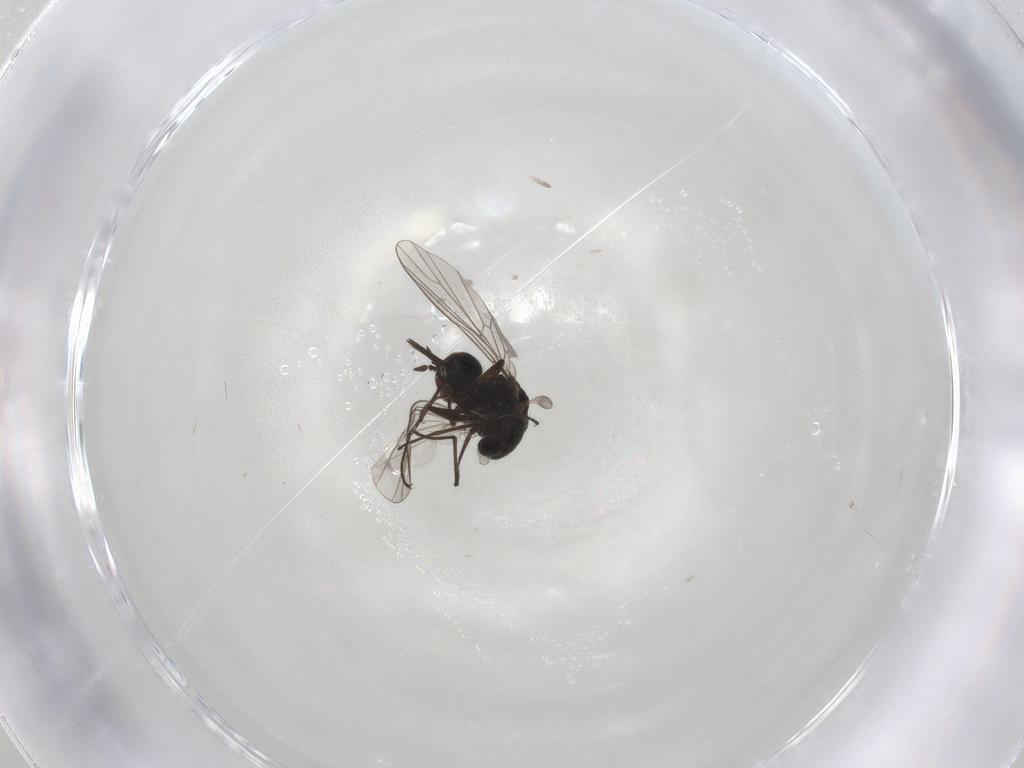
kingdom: Animalia
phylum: Arthropoda
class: Insecta
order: Diptera
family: Bombyliidae
